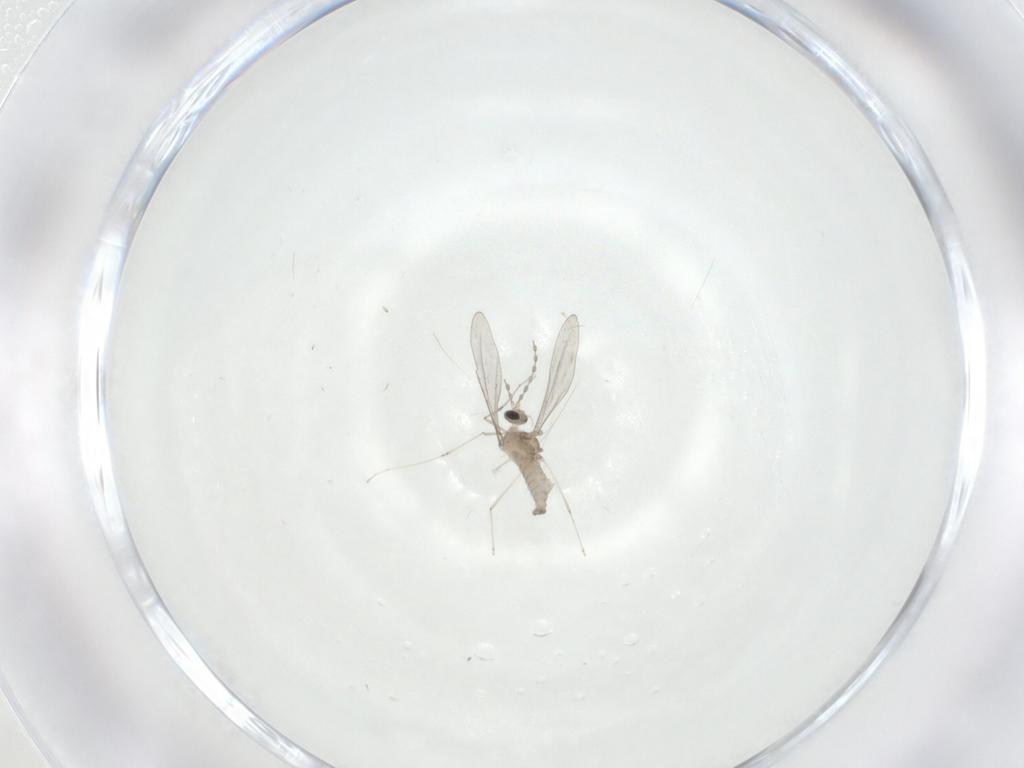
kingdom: Animalia
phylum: Arthropoda
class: Insecta
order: Diptera
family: Cecidomyiidae
